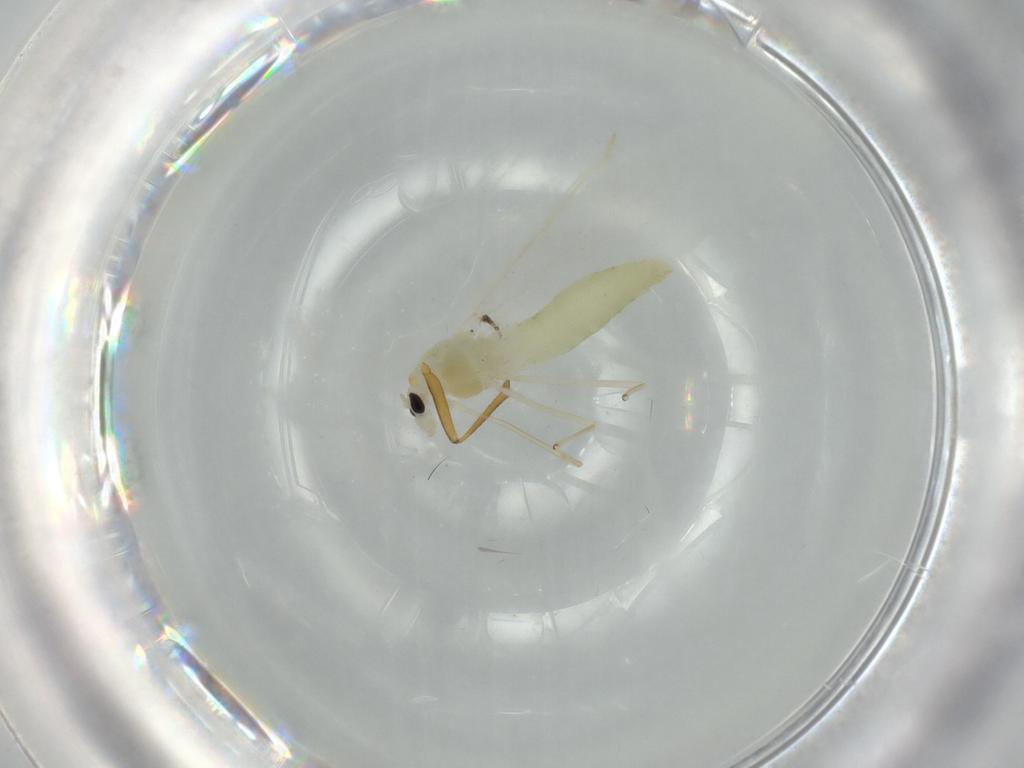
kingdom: Animalia
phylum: Arthropoda
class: Insecta
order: Diptera
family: Chironomidae
